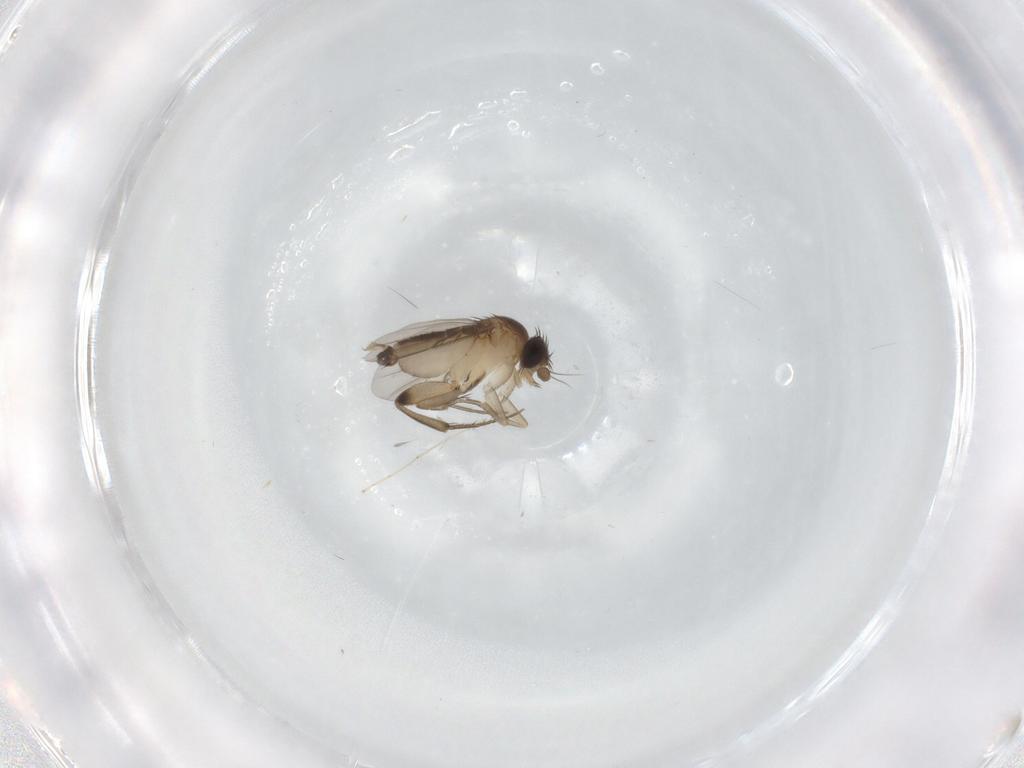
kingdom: Animalia
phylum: Arthropoda
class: Insecta
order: Diptera
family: Phoridae
